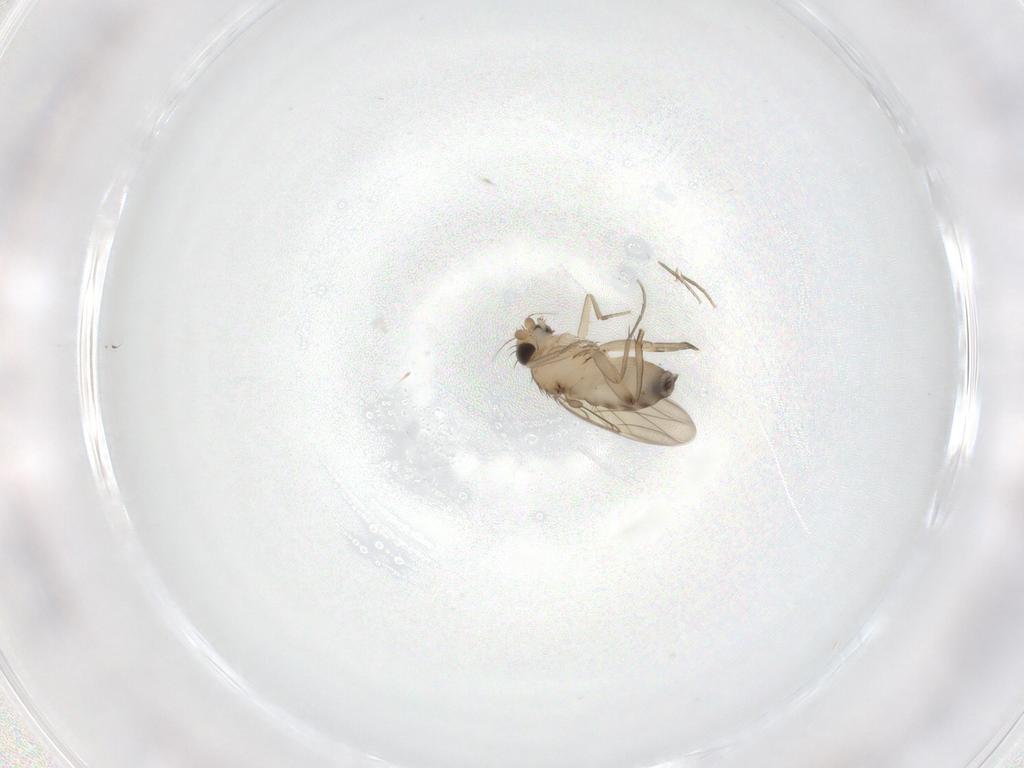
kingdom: Animalia
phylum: Arthropoda
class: Insecta
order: Diptera
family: Phoridae
